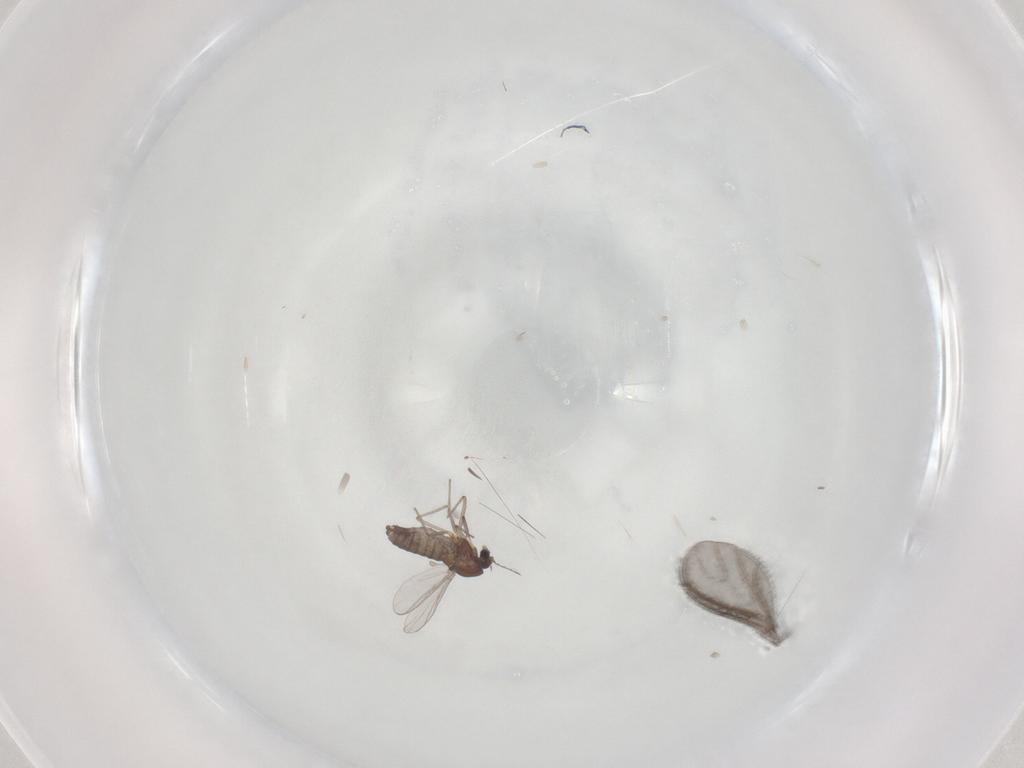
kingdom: Animalia
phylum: Arthropoda
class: Insecta
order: Diptera
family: Chironomidae
